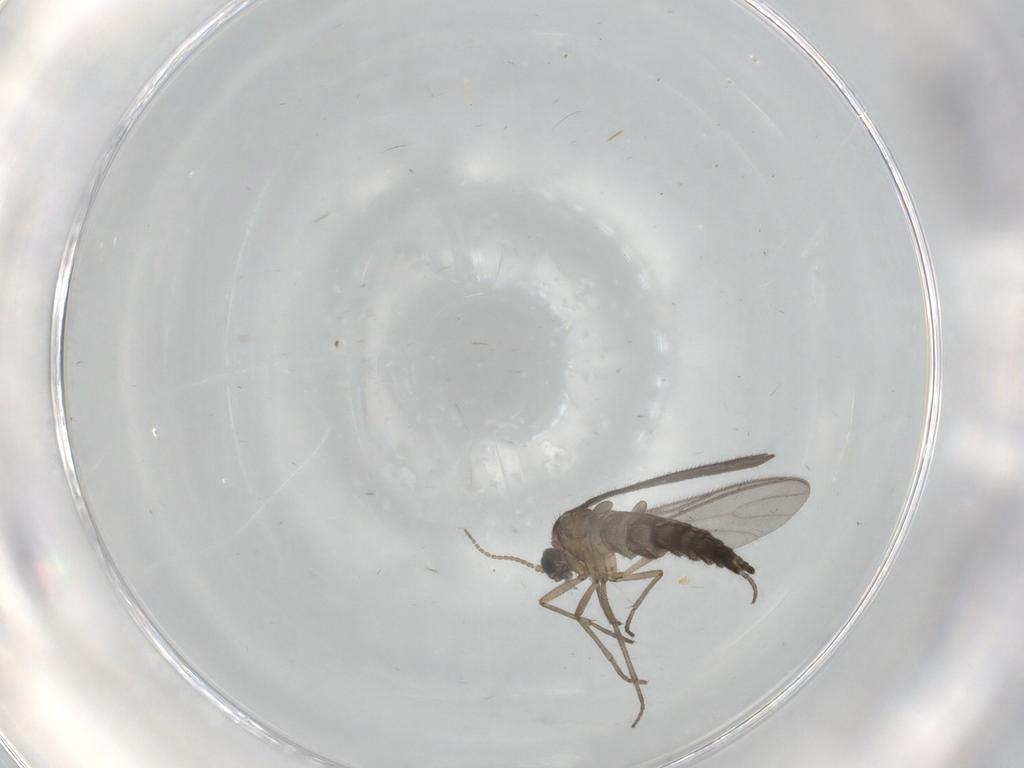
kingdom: Animalia
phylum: Arthropoda
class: Insecta
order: Diptera
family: Sciaridae
